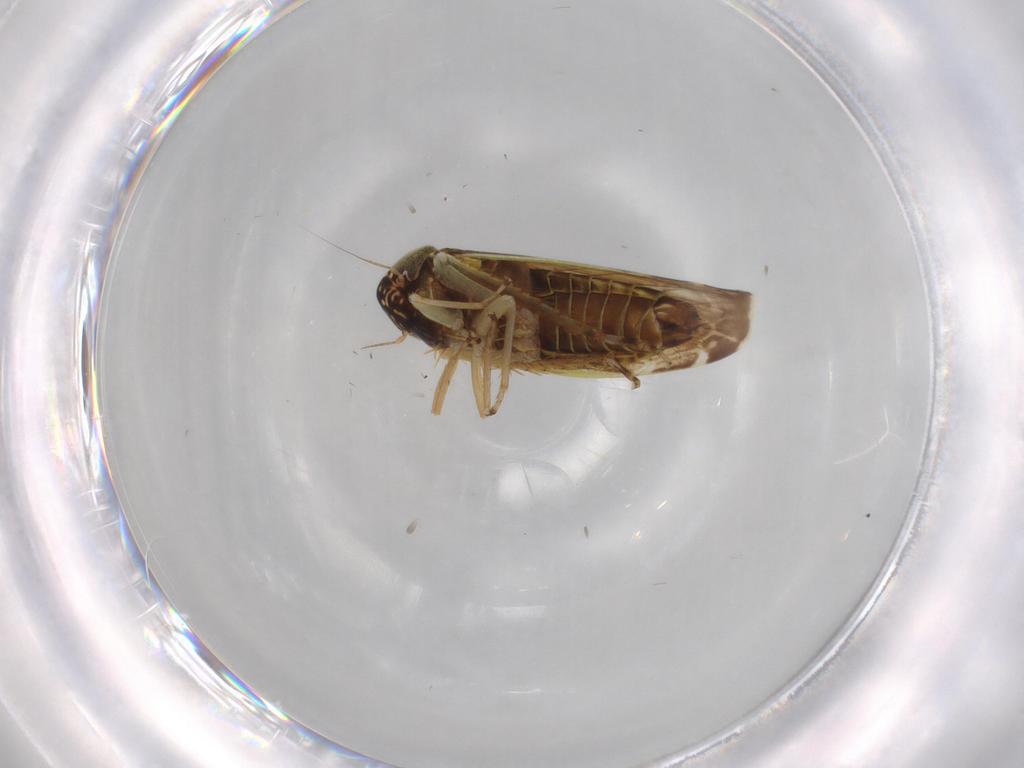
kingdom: Animalia
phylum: Arthropoda
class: Insecta
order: Hemiptera
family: Cicadellidae
